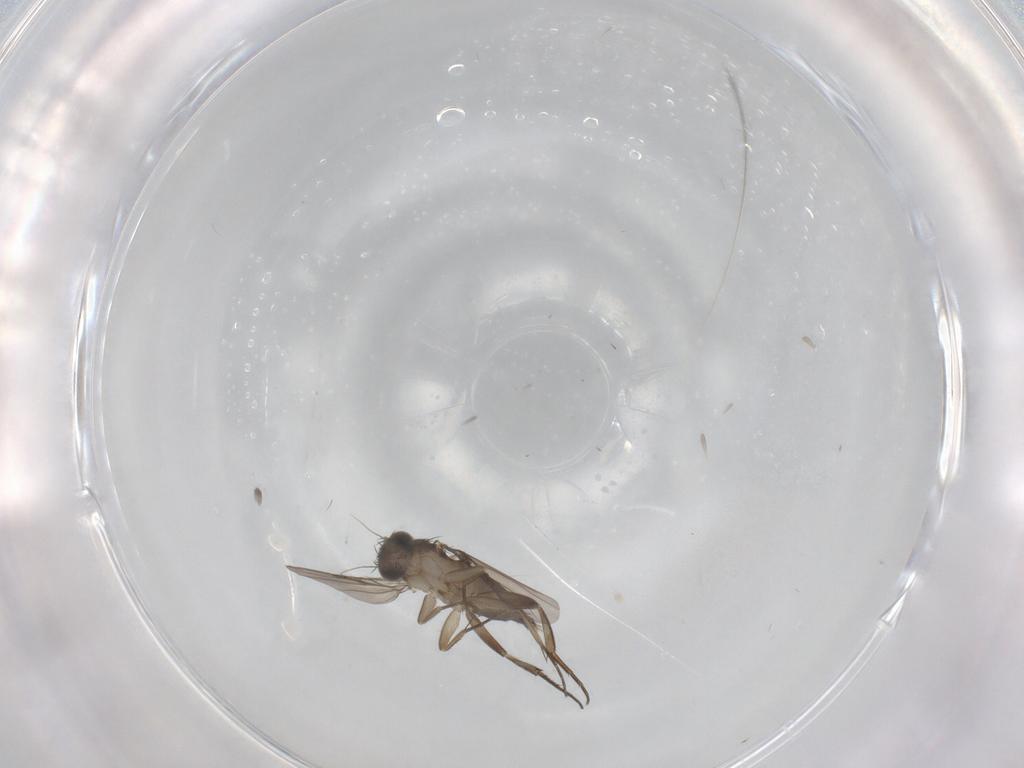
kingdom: Animalia
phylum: Arthropoda
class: Insecta
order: Diptera
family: Phoridae
